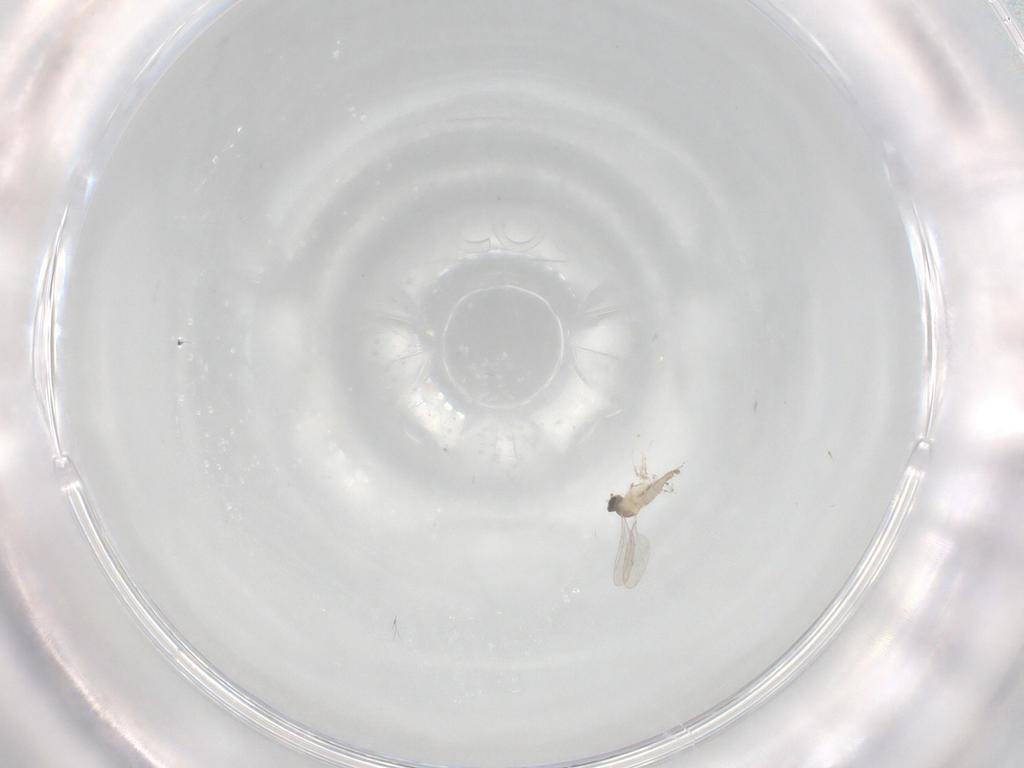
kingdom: Animalia
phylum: Arthropoda
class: Insecta
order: Diptera
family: Cecidomyiidae
